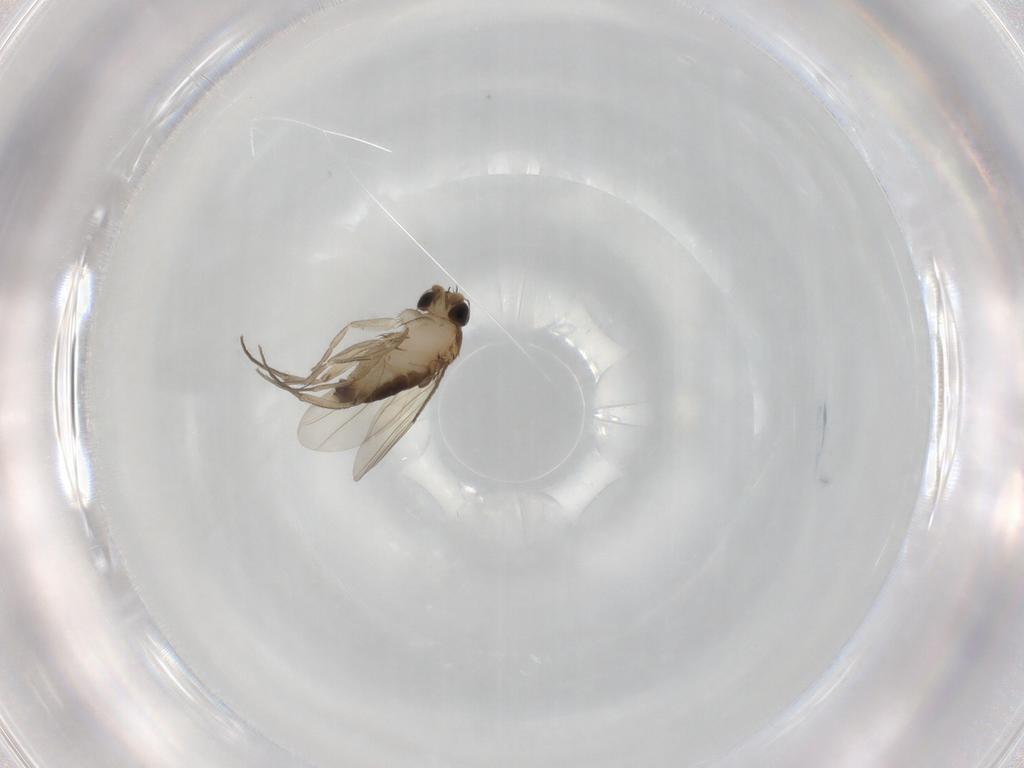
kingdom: Animalia
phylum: Arthropoda
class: Insecta
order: Diptera
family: Phoridae
